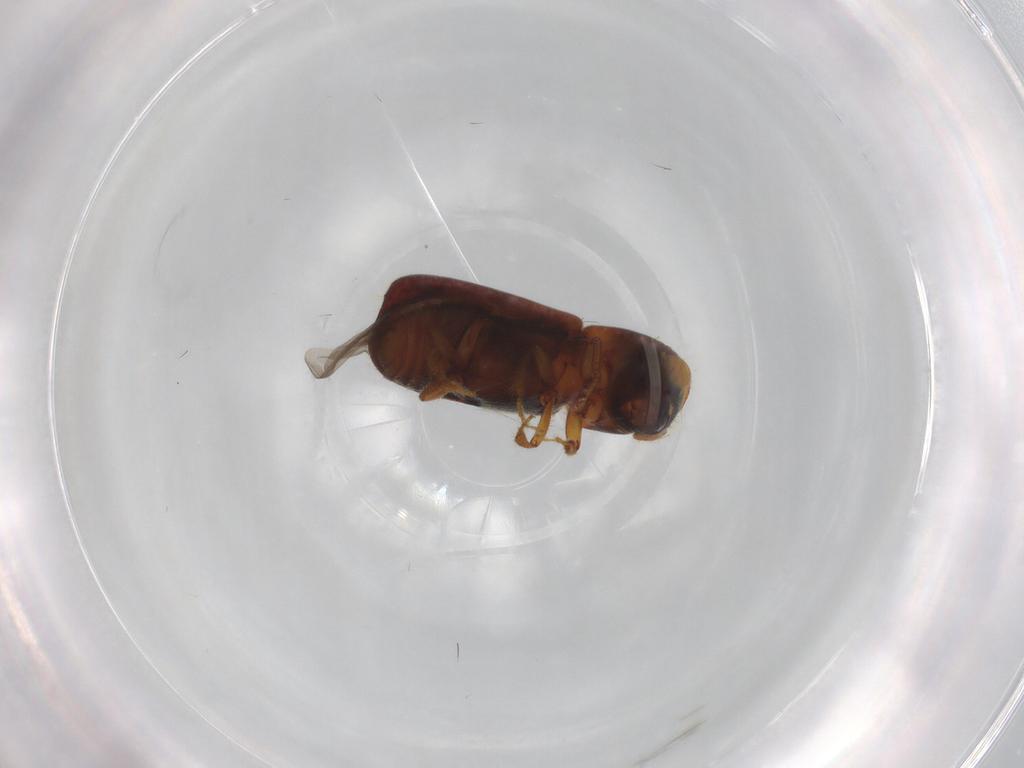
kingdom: Animalia
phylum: Arthropoda
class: Insecta
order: Coleoptera
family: Curculionidae
